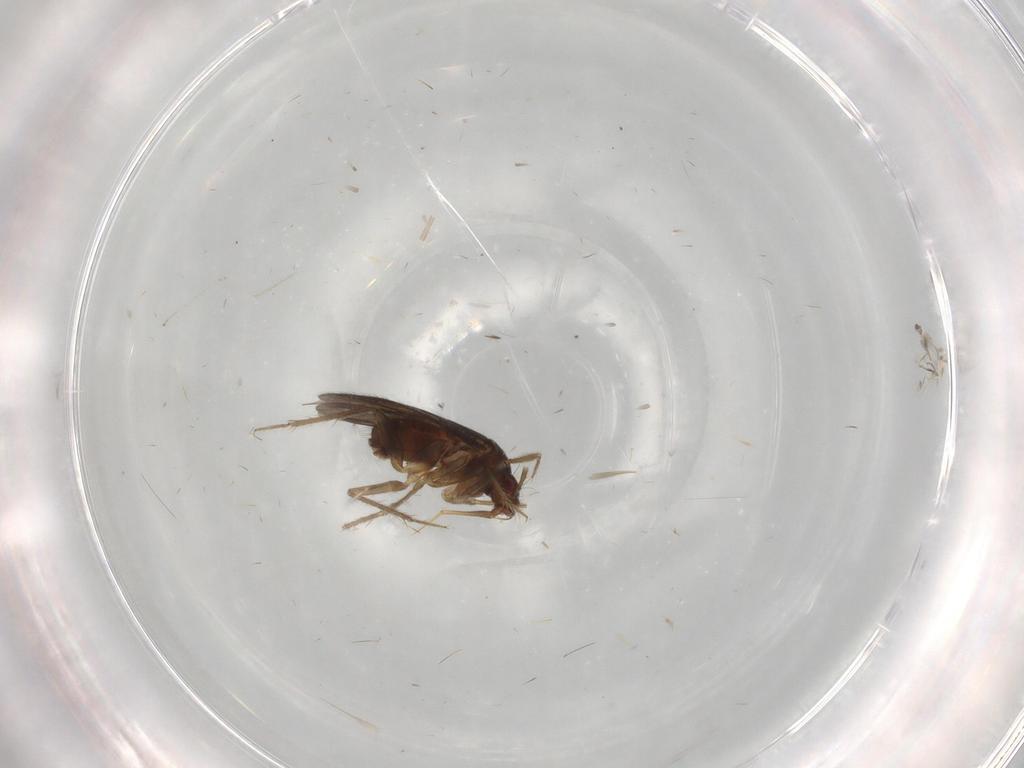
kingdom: Animalia
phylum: Arthropoda
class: Insecta
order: Hemiptera
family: Ceratocombidae
